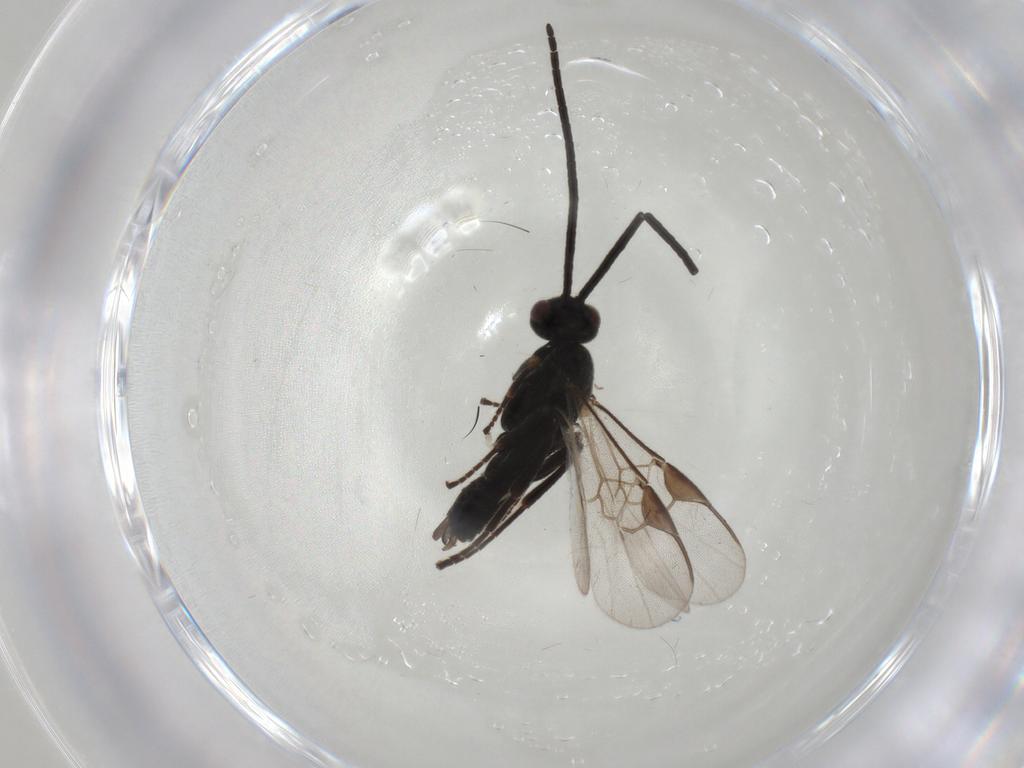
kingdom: Animalia
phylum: Arthropoda
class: Insecta
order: Hymenoptera
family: Braconidae
